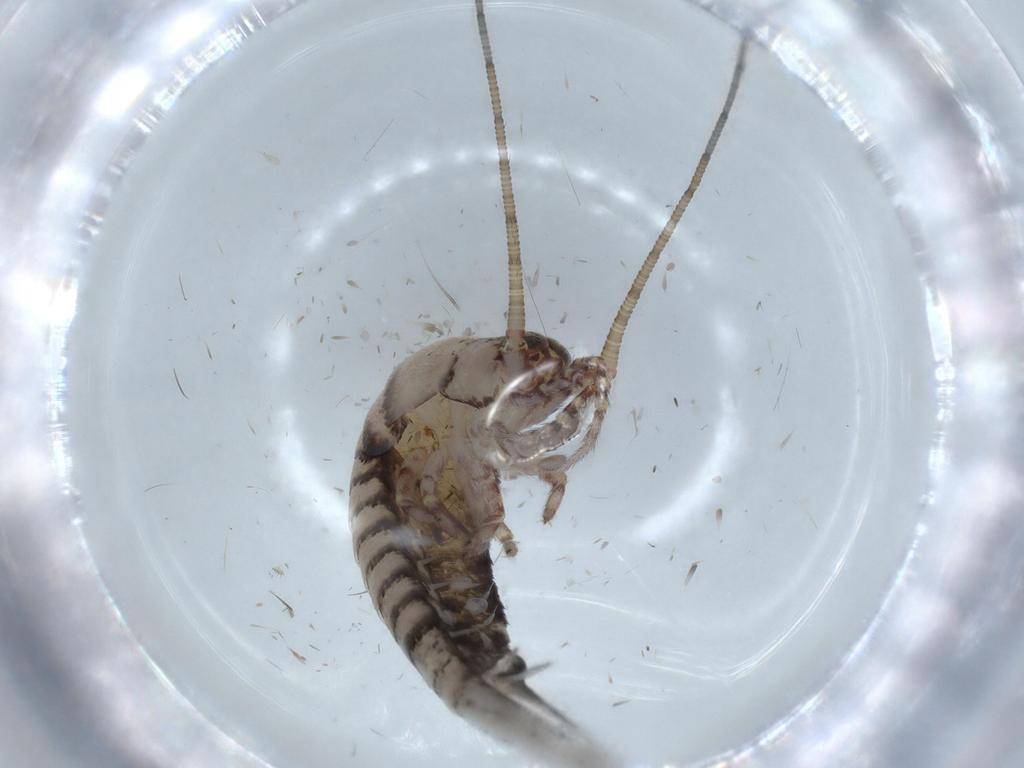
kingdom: Animalia
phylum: Arthropoda
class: Insecta
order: Archaeognatha
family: Machilidae
